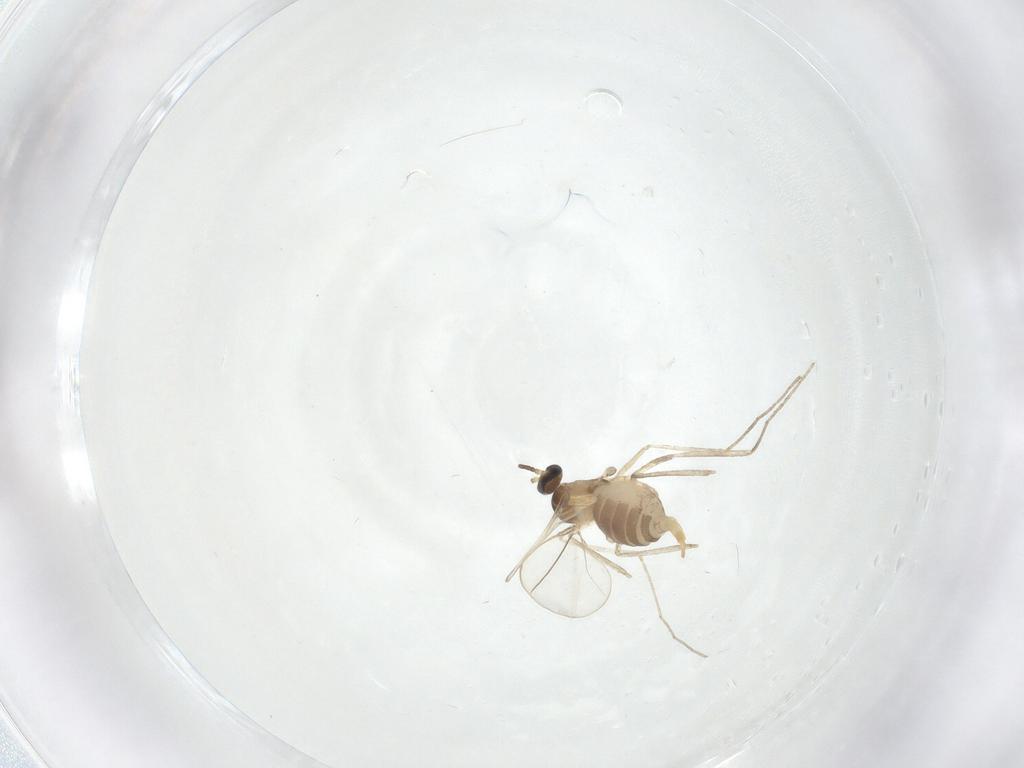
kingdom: Animalia
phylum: Arthropoda
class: Insecta
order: Diptera
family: Cecidomyiidae
